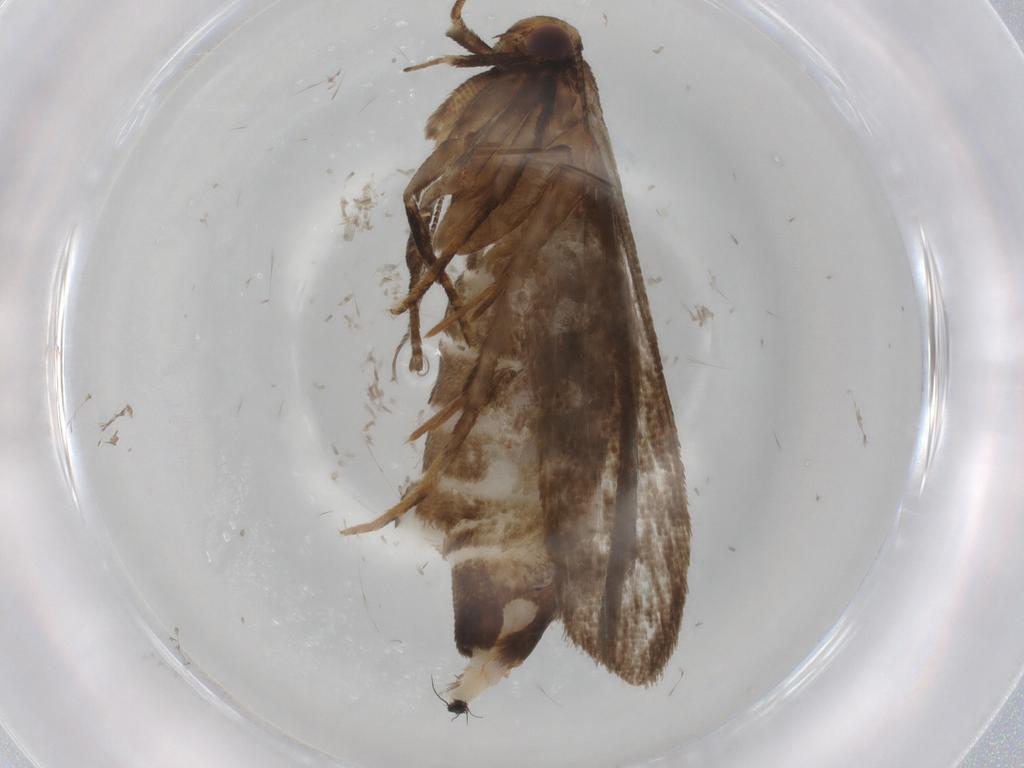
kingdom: Animalia
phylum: Arthropoda
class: Insecta
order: Lepidoptera
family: Gelechiidae
